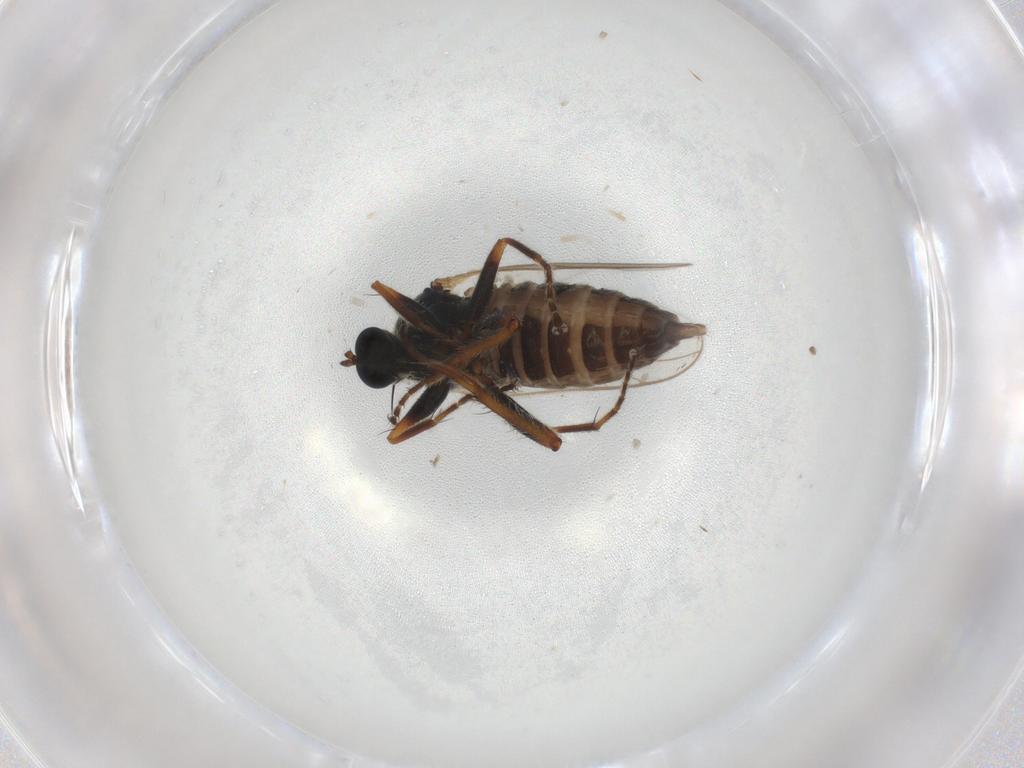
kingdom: Animalia
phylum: Arthropoda
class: Insecta
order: Diptera
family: Hybotidae
